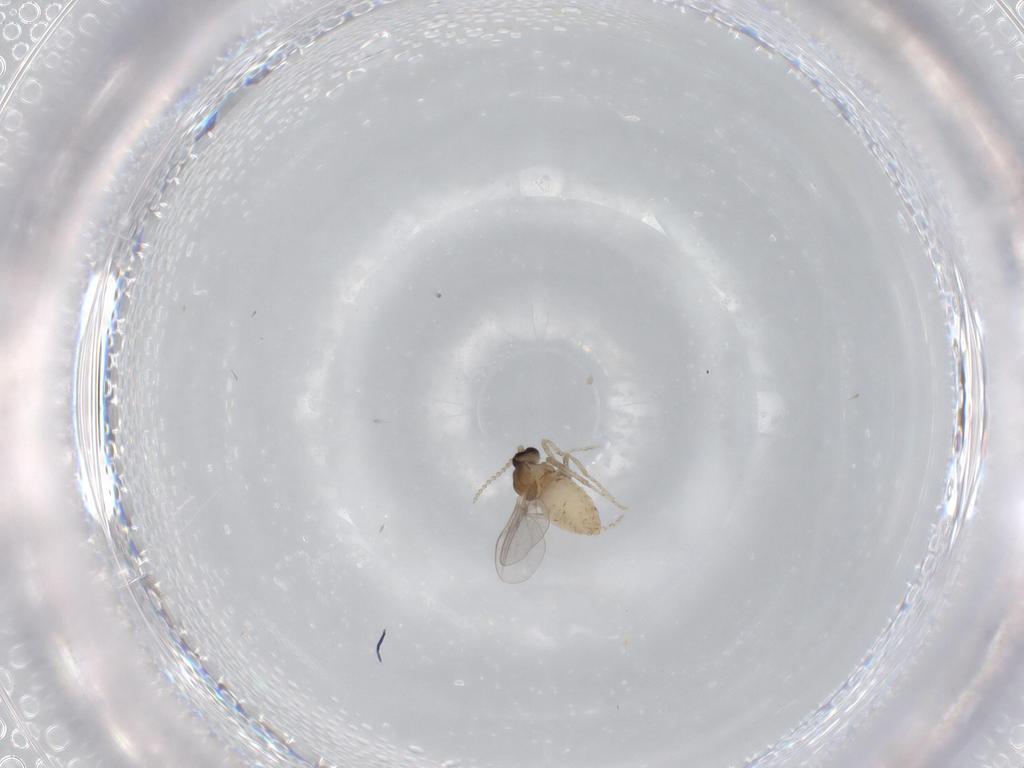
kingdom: Animalia
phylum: Arthropoda
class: Insecta
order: Diptera
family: Cecidomyiidae
